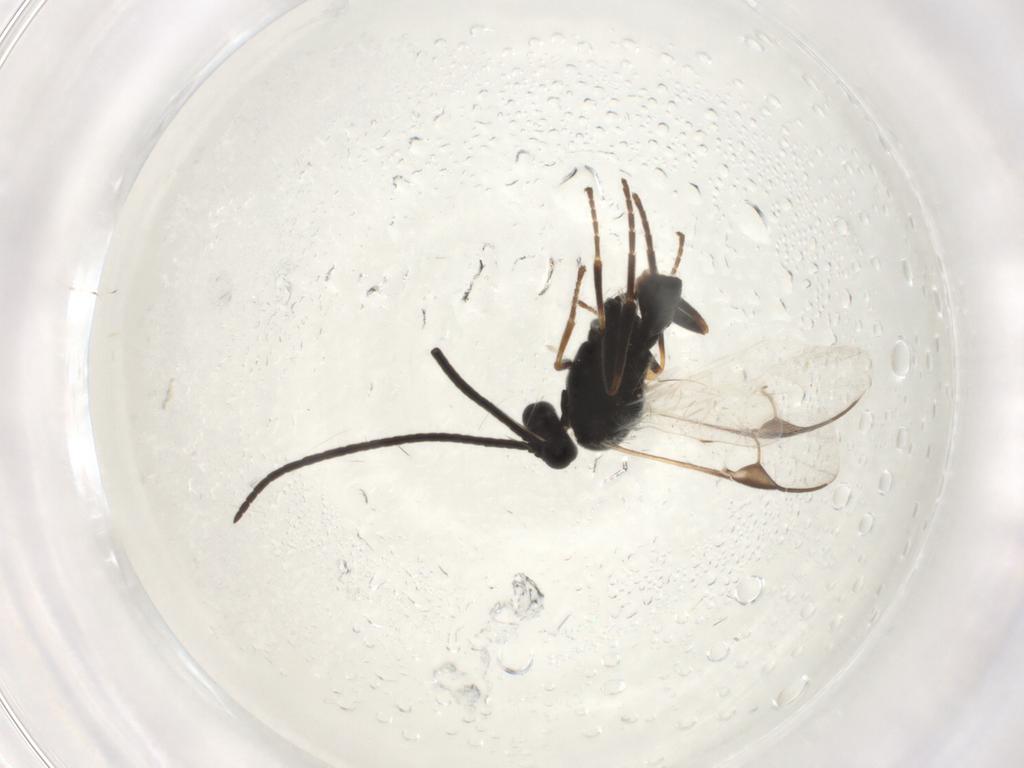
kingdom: Animalia
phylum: Arthropoda
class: Insecta
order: Hymenoptera
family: Braconidae
